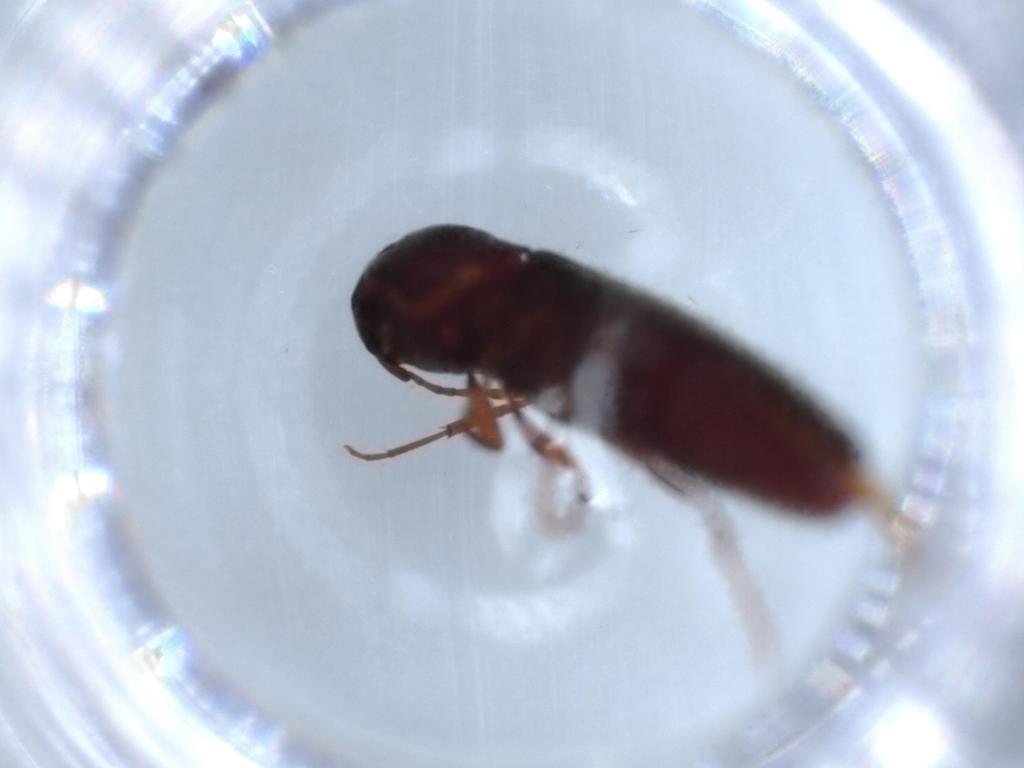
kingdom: Animalia
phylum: Arthropoda
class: Insecta
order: Coleoptera
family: Eucnemidae
